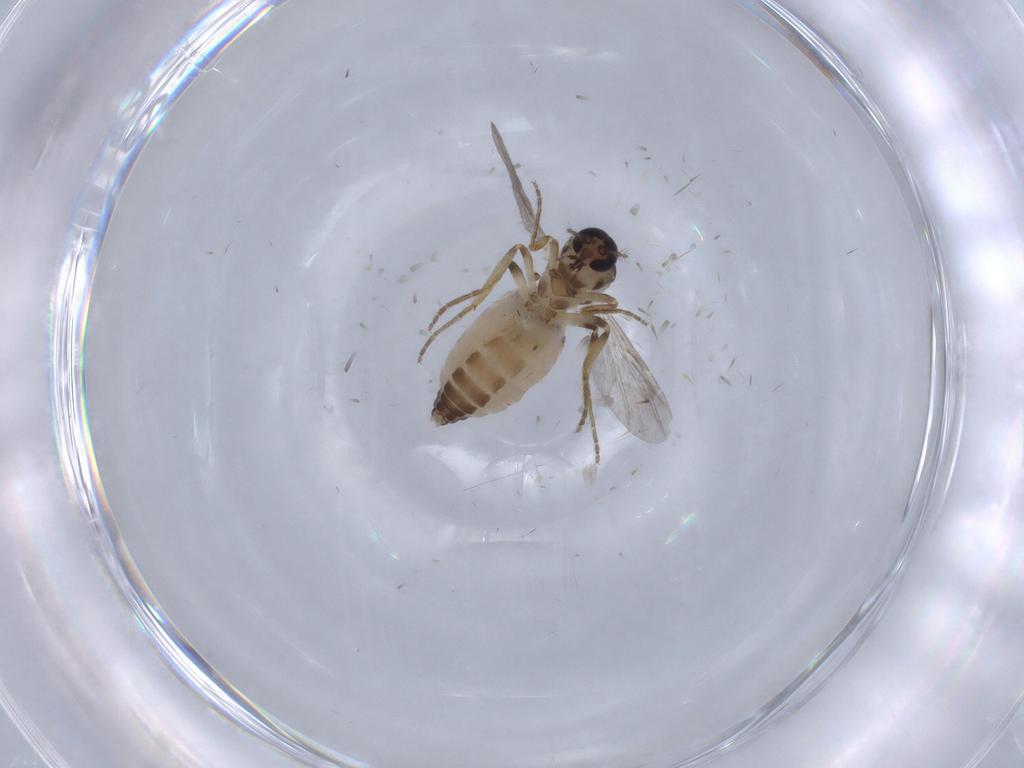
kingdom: Animalia
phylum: Arthropoda
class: Insecta
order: Diptera
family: Ceratopogonidae
